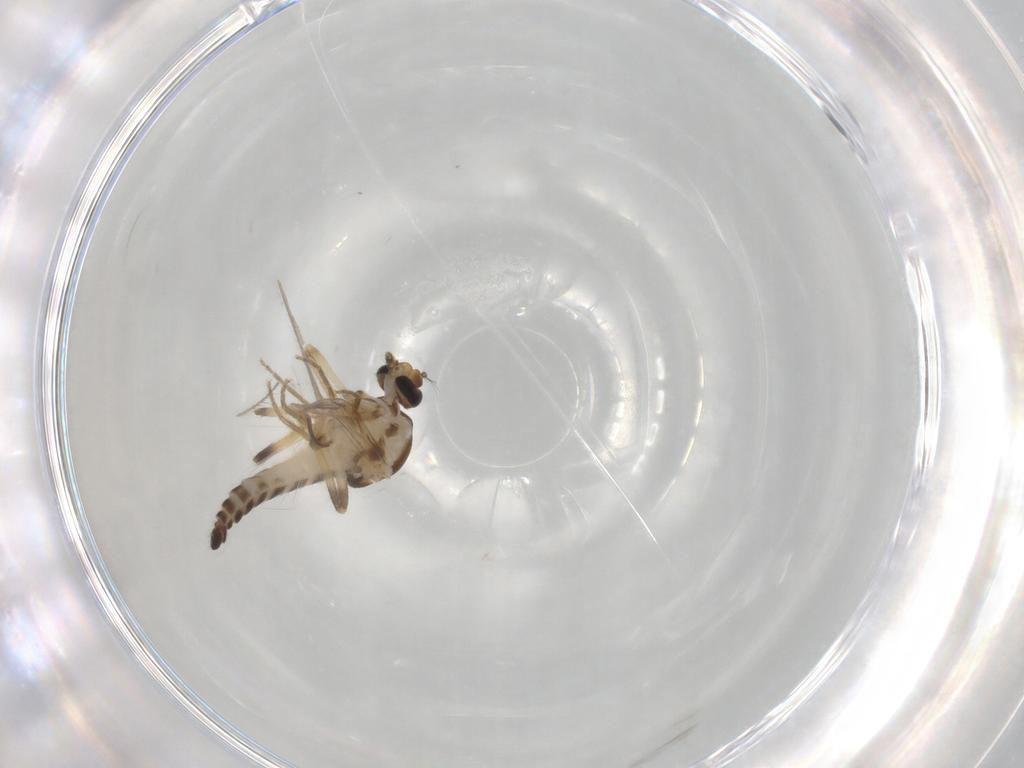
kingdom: Animalia
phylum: Arthropoda
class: Insecta
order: Diptera
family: Ceratopogonidae
